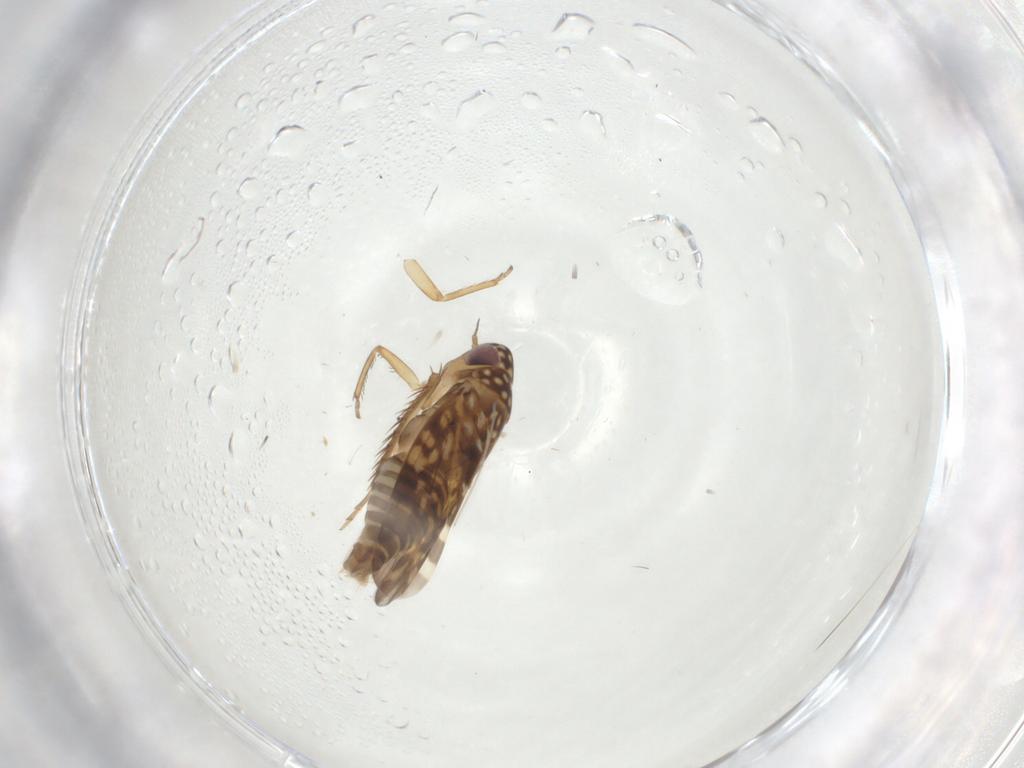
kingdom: Animalia
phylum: Arthropoda
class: Insecta
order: Hemiptera
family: Cicadellidae
